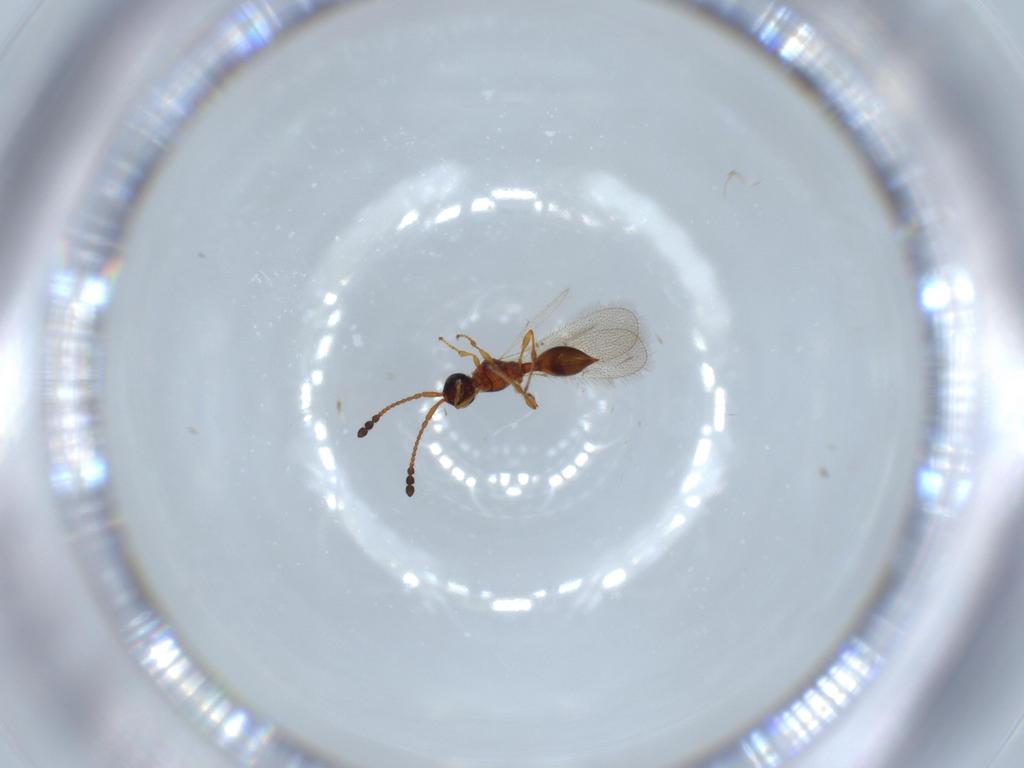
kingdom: Animalia
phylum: Arthropoda
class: Insecta
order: Hymenoptera
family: Diapriidae
